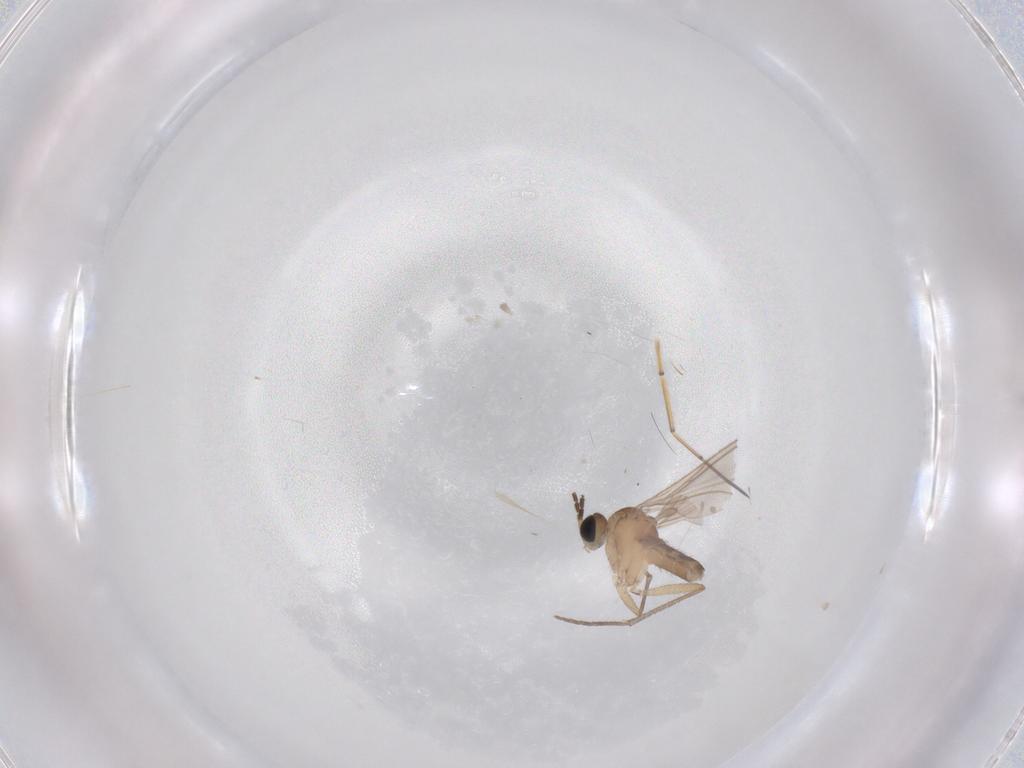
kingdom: Animalia
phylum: Arthropoda
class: Insecta
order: Diptera
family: Sciaridae
